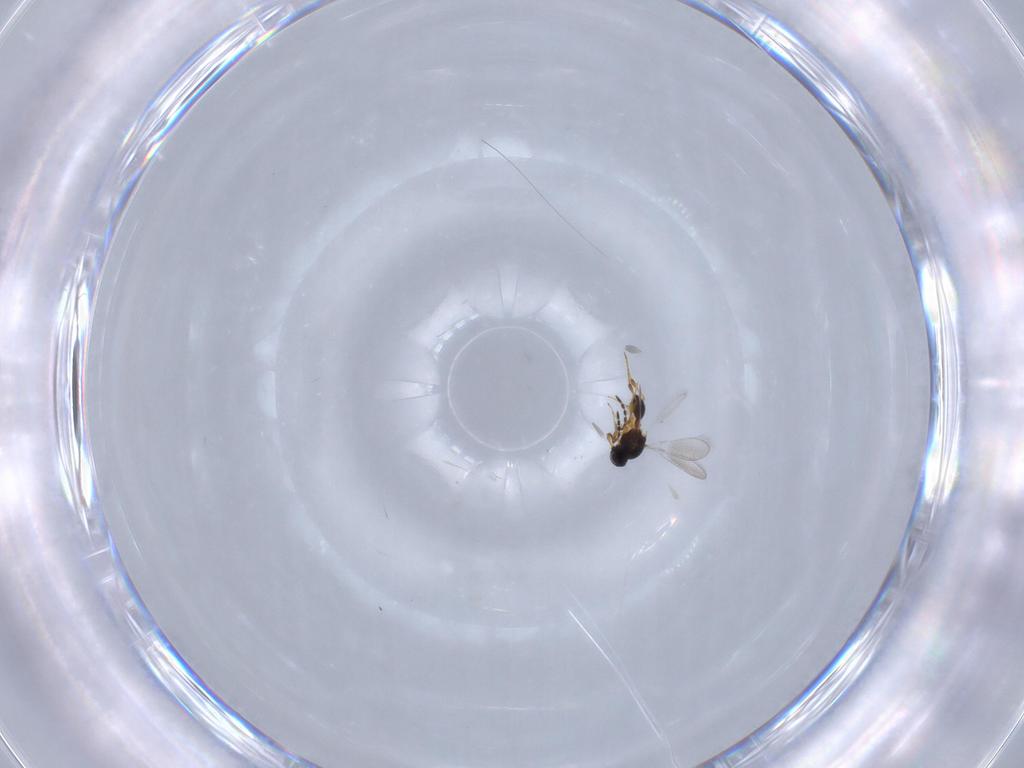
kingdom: Animalia
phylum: Arthropoda
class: Insecta
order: Hymenoptera
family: Platygastridae
